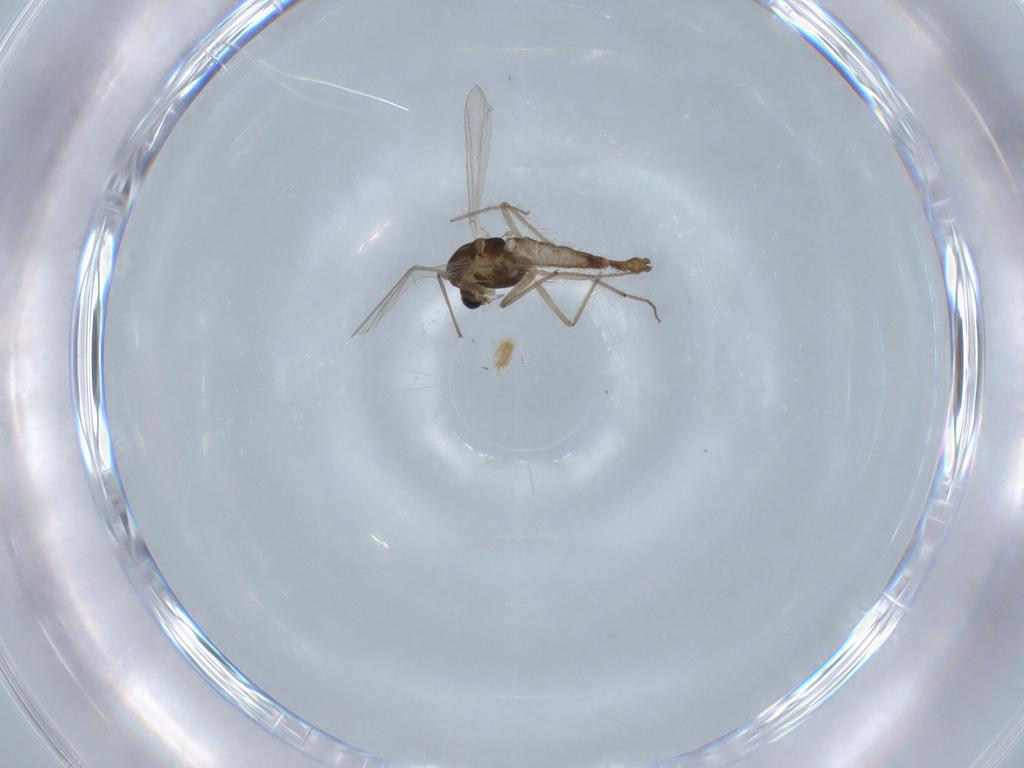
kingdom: Animalia
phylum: Arthropoda
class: Insecta
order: Diptera
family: Chironomidae
